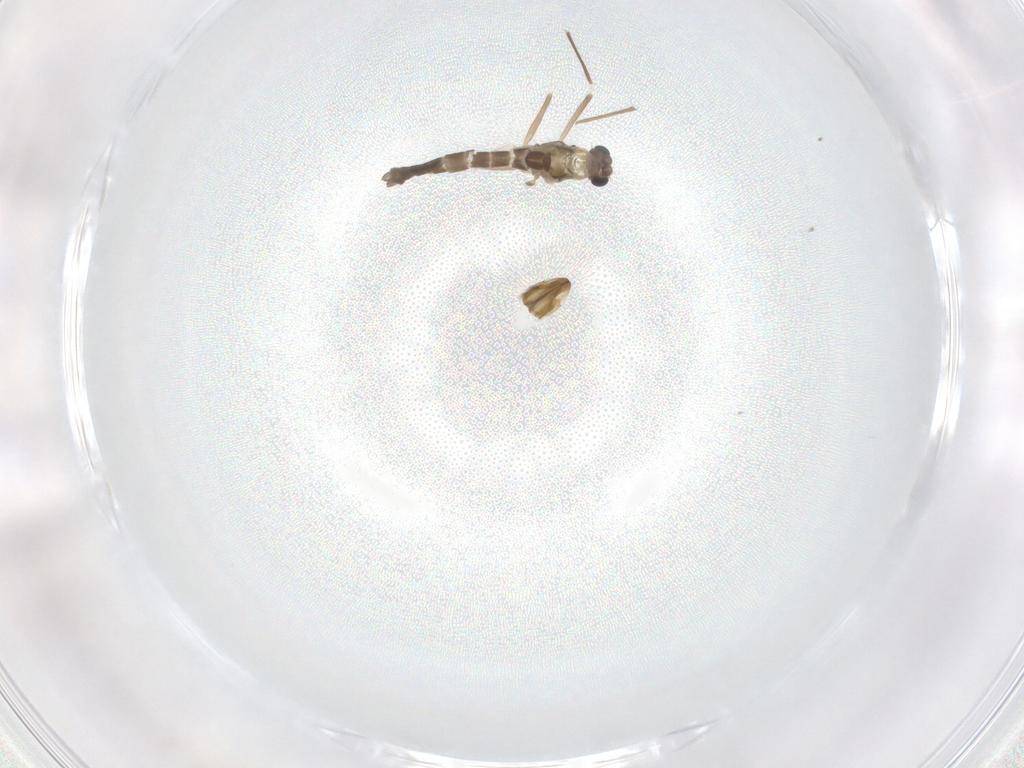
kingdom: Animalia
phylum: Arthropoda
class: Insecta
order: Diptera
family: Chironomidae
